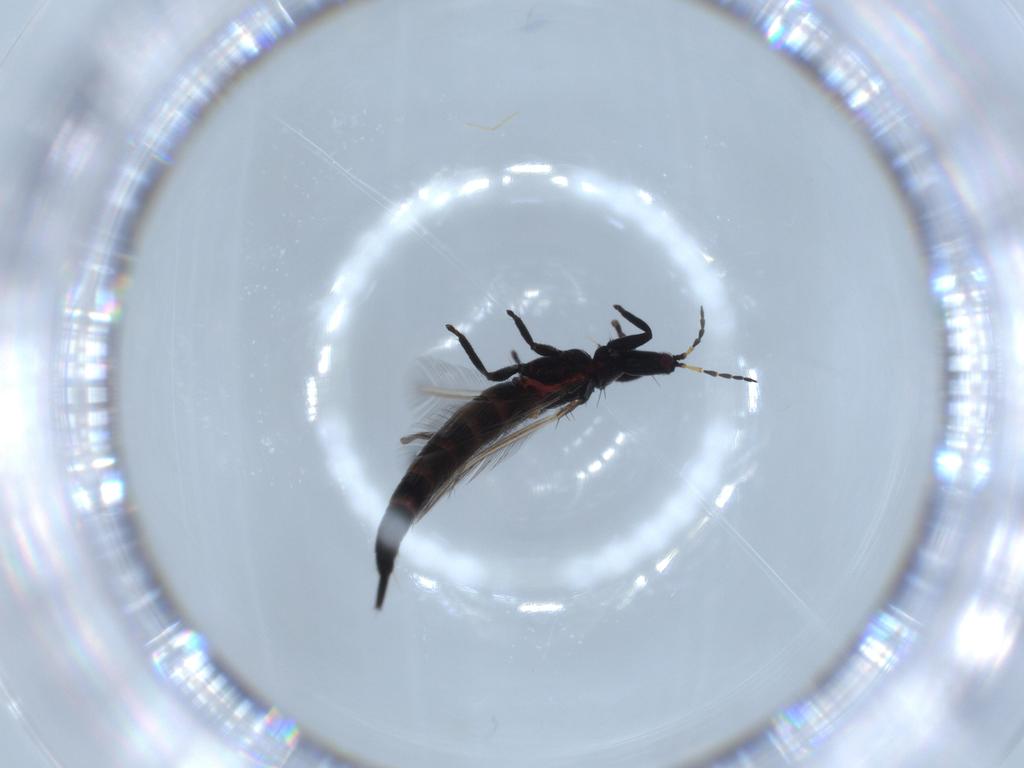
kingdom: Animalia
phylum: Arthropoda
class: Insecta
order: Thysanoptera
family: Phlaeothripidae
